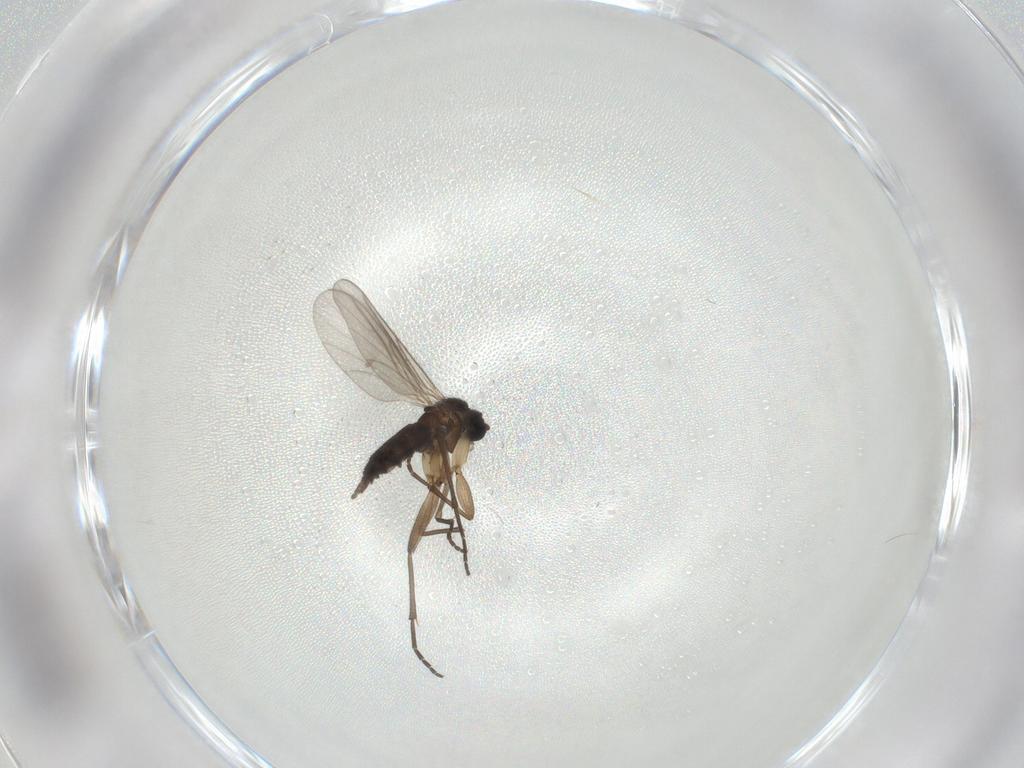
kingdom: Animalia
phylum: Arthropoda
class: Insecta
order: Diptera
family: Sciaridae
